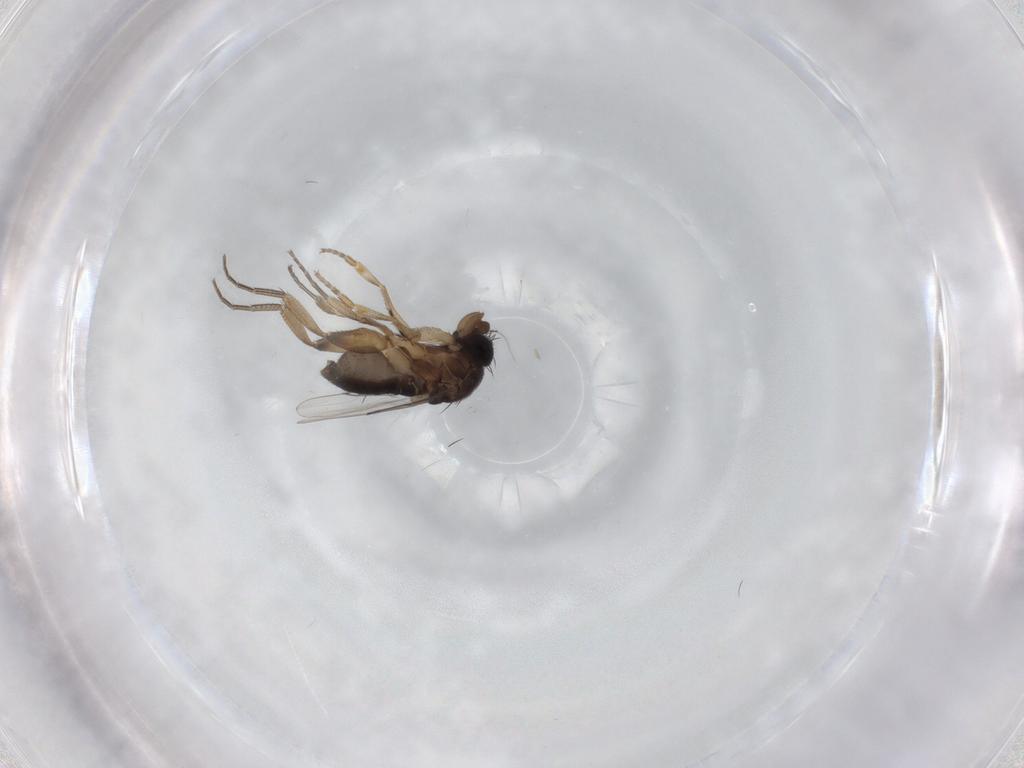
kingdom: Animalia
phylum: Arthropoda
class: Insecta
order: Diptera
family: Phoridae
